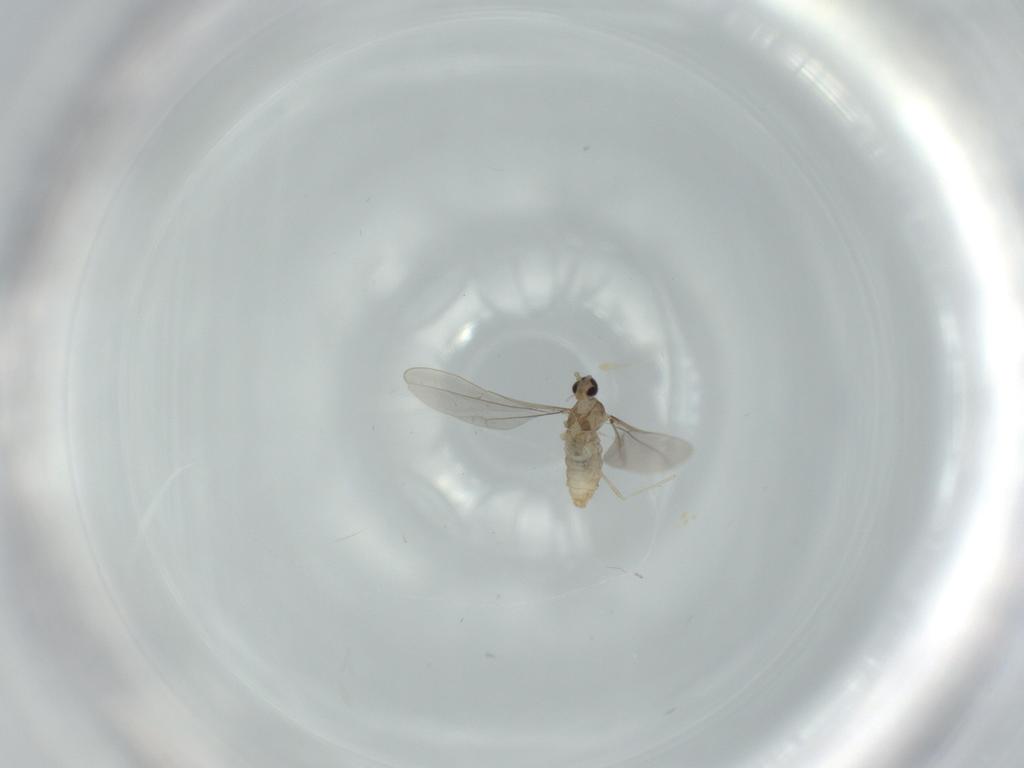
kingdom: Animalia
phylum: Arthropoda
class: Insecta
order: Diptera
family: Cecidomyiidae
